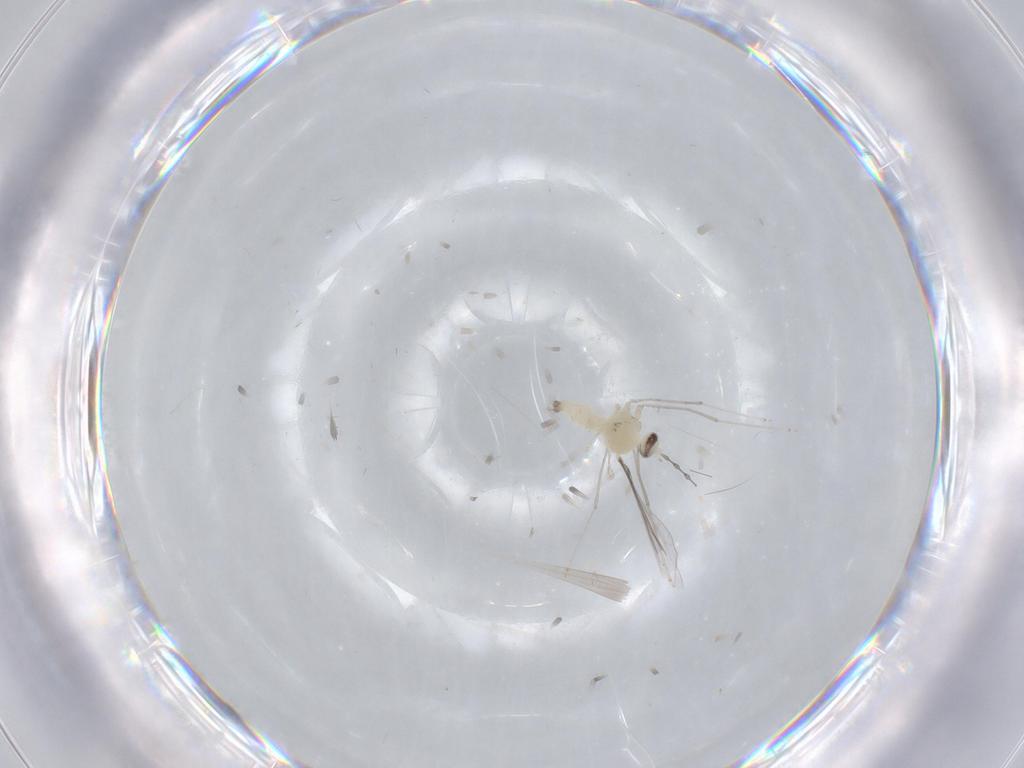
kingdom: Animalia
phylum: Arthropoda
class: Insecta
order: Diptera
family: Cecidomyiidae
